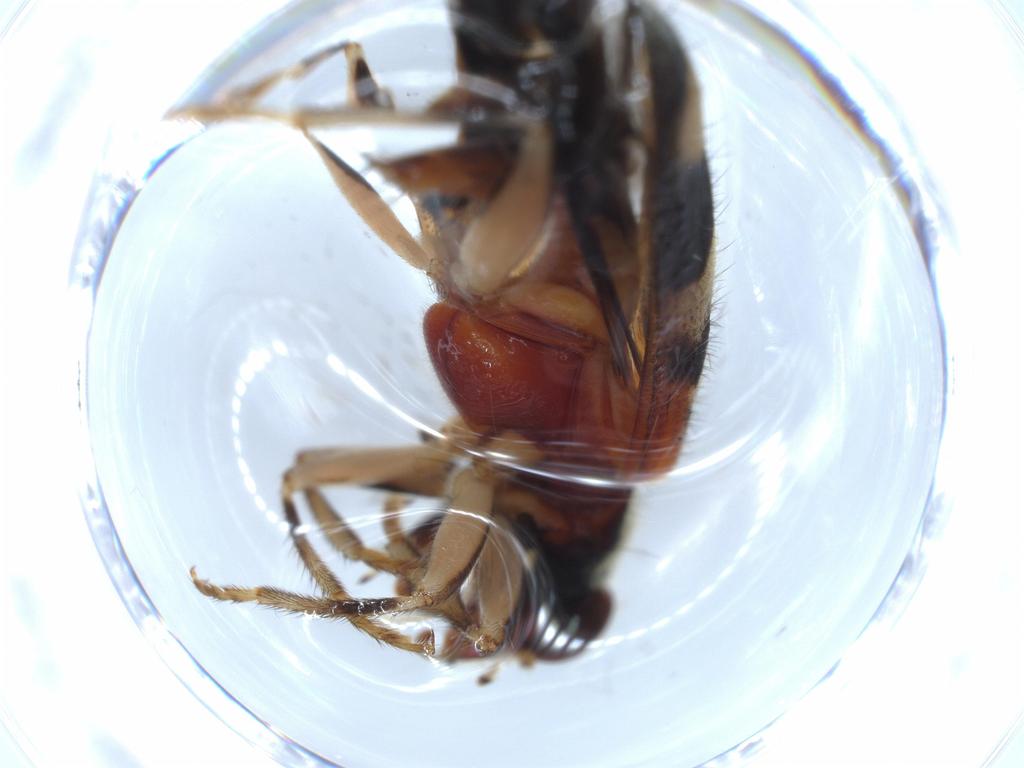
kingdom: Animalia
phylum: Arthropoda
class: Insecta
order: Coleoptera
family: Cleridae
